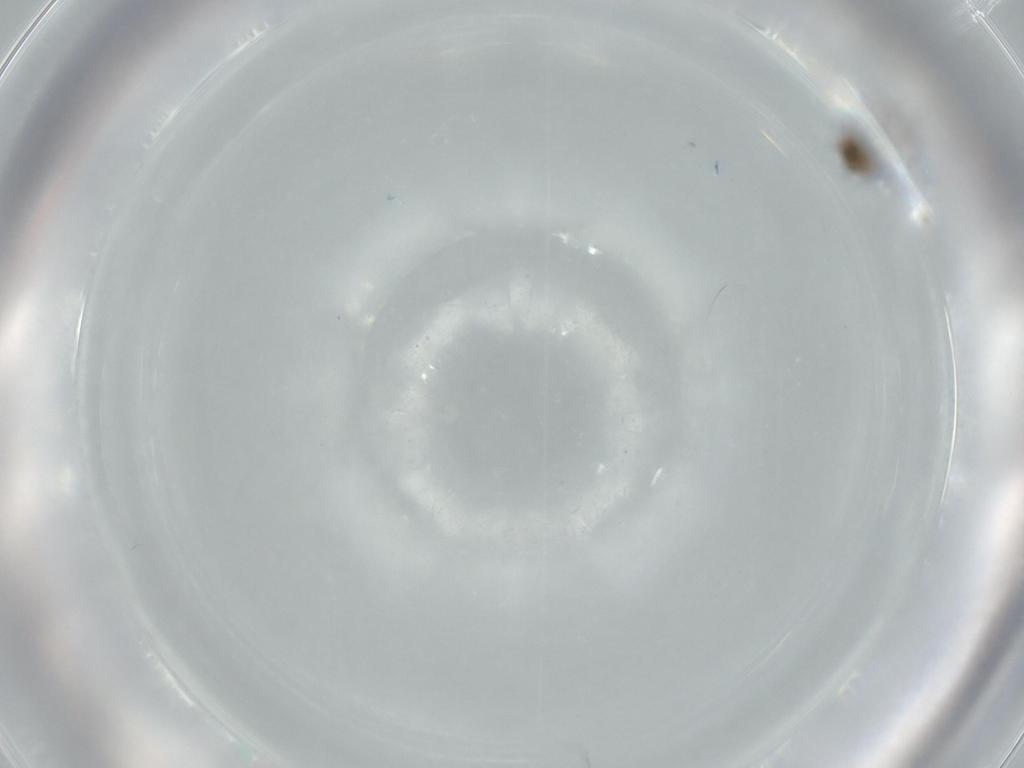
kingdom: Animalia
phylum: Arthropoda
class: Insecta
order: Diptera
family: Cecidomyiidae
